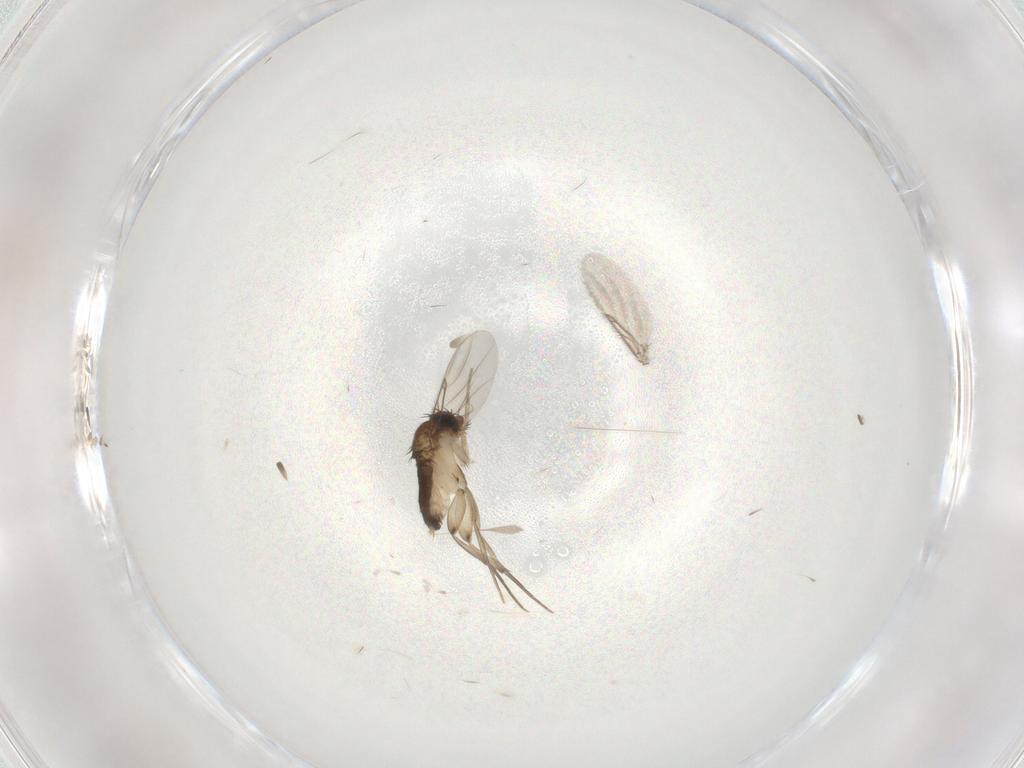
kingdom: Animalia
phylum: Arthropoda
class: Insecta
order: Diptera
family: Phoridae
